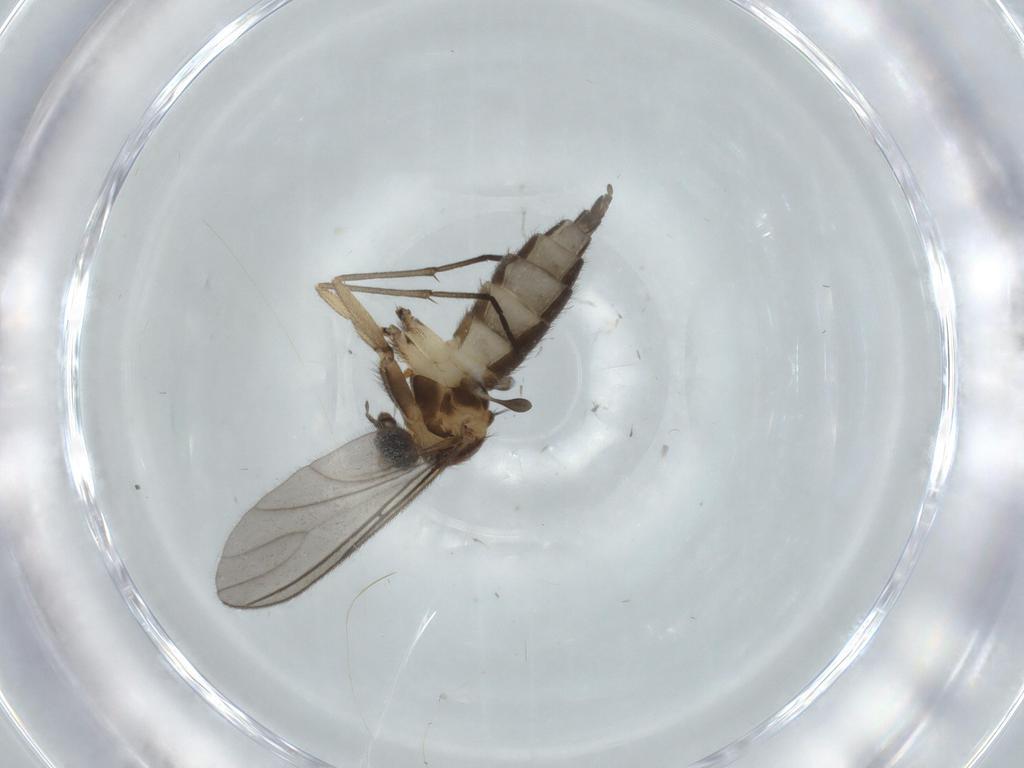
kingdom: Animalia
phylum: Arthropoda
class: Insecta
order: Diptera
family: Sciaridae
